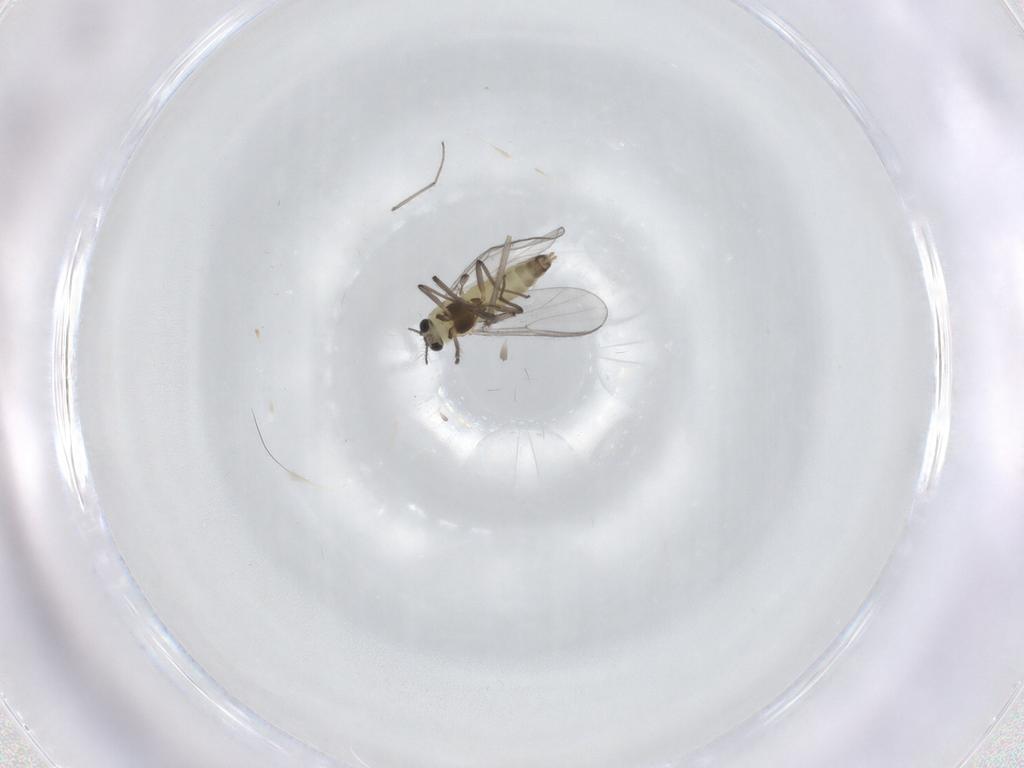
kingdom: Animalia
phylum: Arthropoda
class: Insecta
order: Diptera
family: Chironomidae
